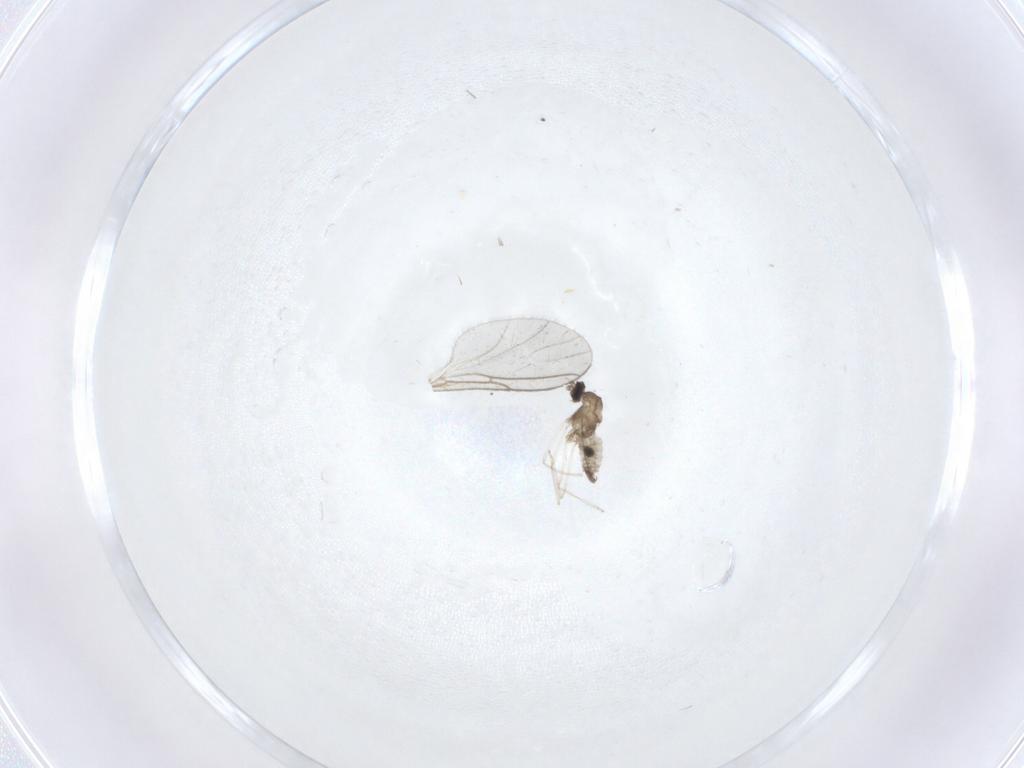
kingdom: Animalia
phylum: Arthropoda
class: Insecta
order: Diptera
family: Cecidomyiidae
